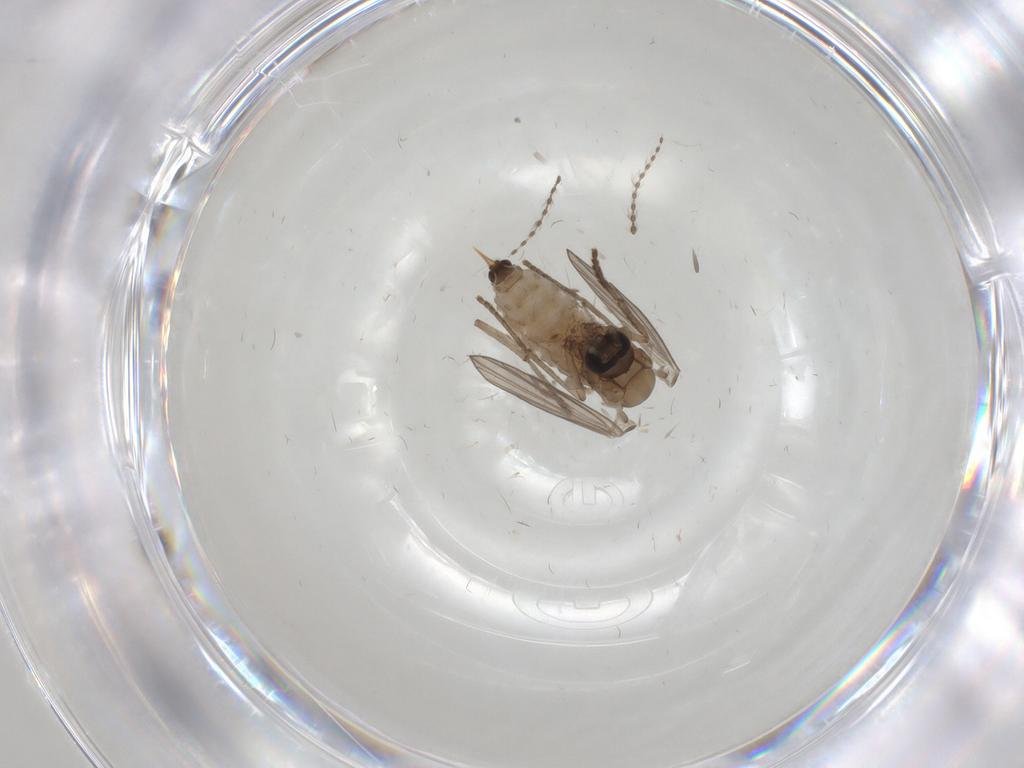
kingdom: Animalia
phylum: Arthropoda
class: Insecta
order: Diptera
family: Psychodidae
